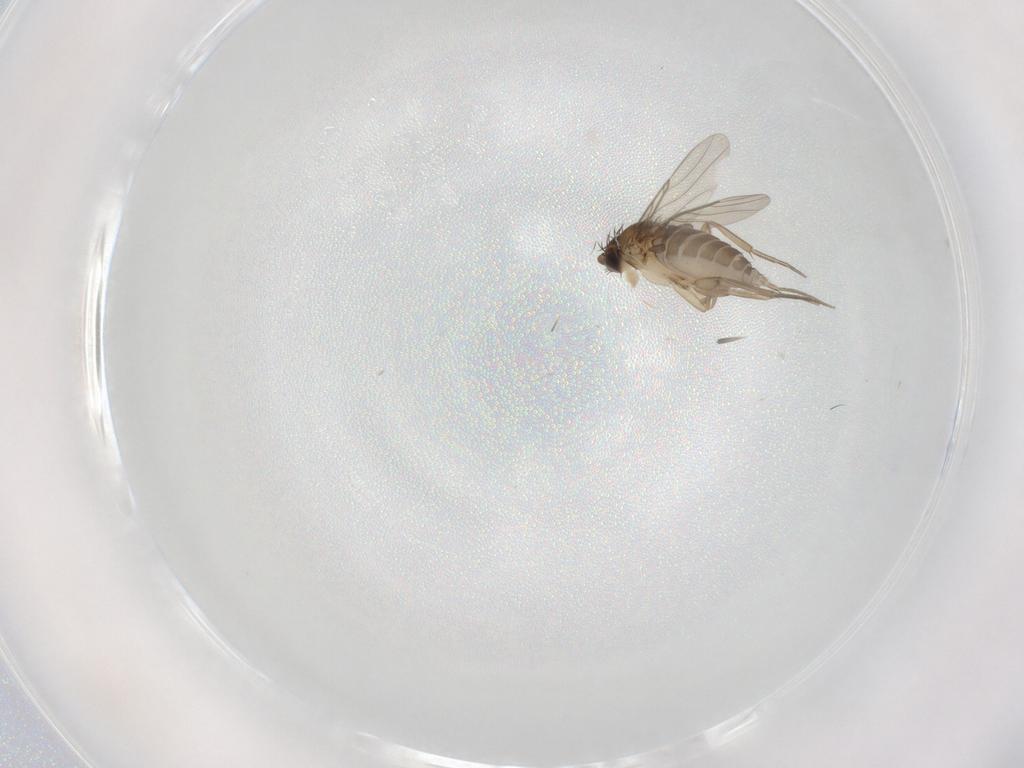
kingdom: Animalia
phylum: Arthropoda
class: Insecta
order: Diptera
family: Phoridae
